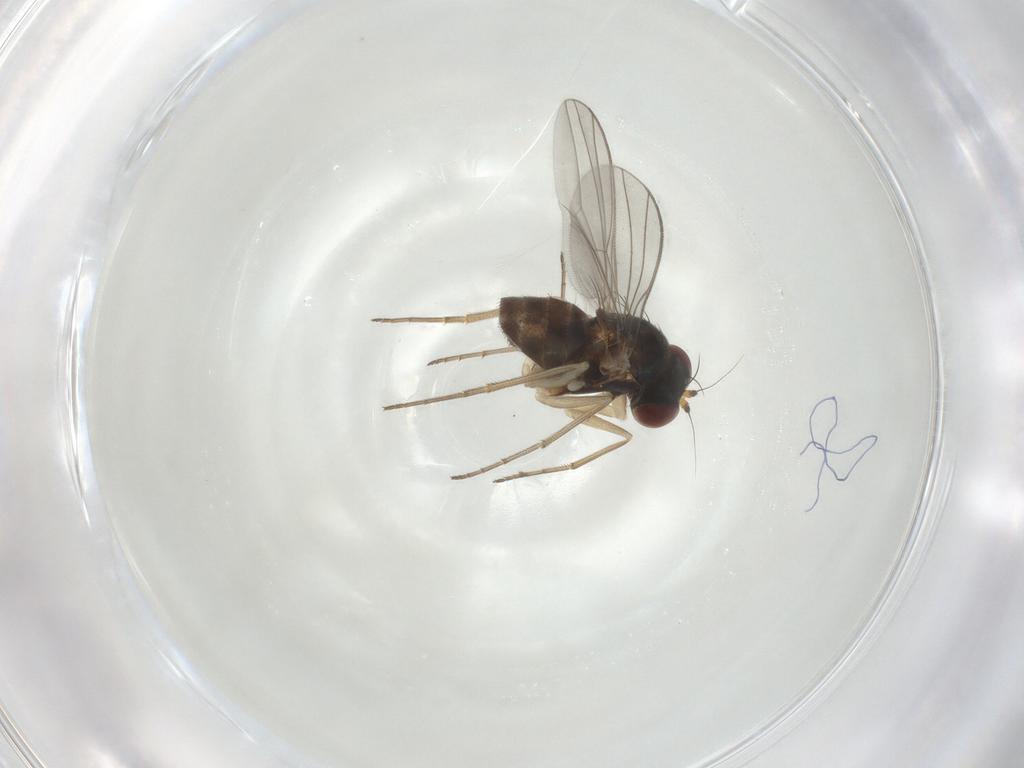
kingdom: Animalia
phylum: Arthropoda
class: Insecta
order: Diptera
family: Dolichopodidae
